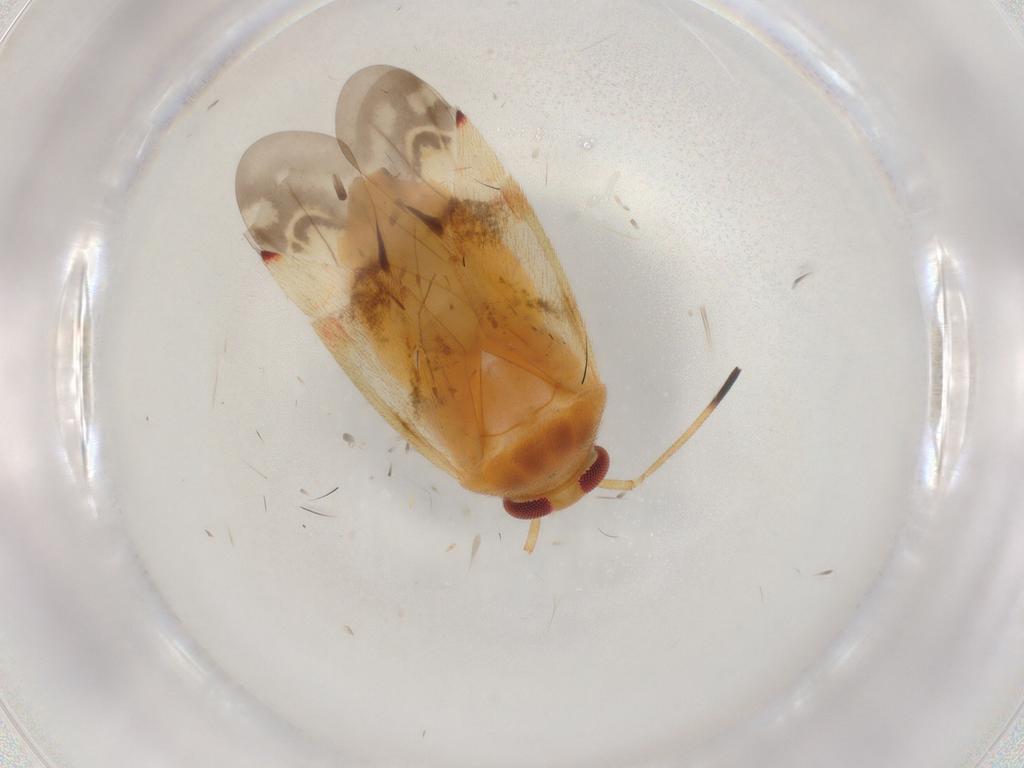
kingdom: Animalia
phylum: Arthropoda
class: Insecta
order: Hemiptera
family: Miridae
